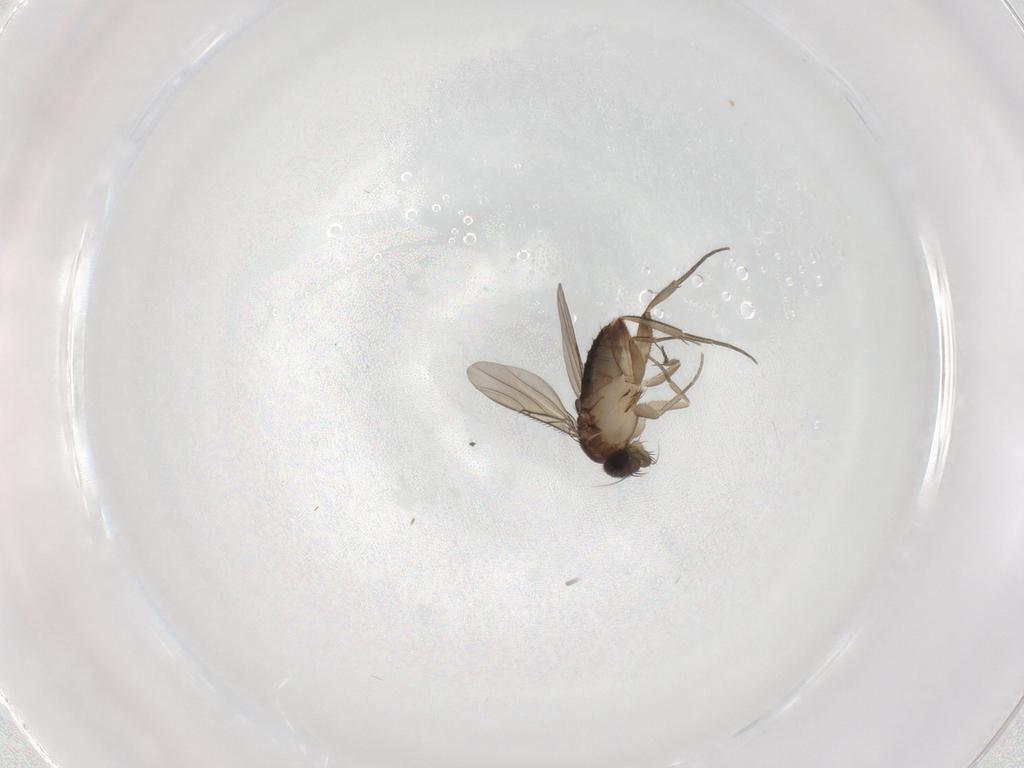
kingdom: Animalia
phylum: Arthropoda
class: Insecta
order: Diptera
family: Phoridae
